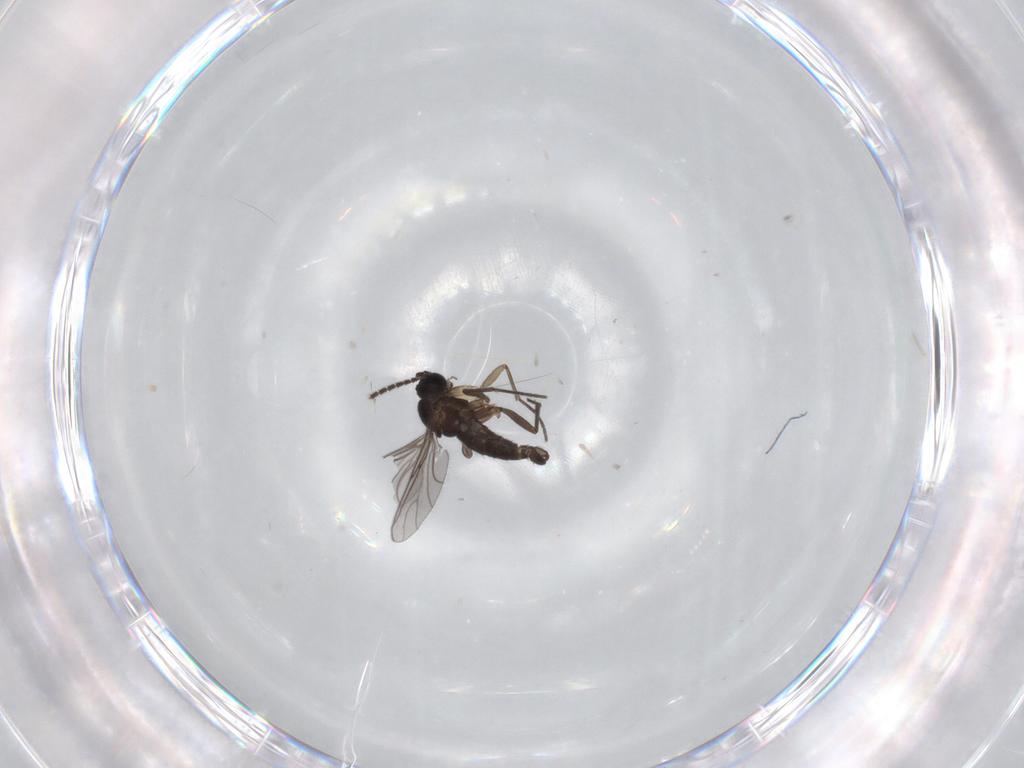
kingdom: Animalia
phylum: Arthropoda
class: Insecta
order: Diptera
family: Sciaridae
